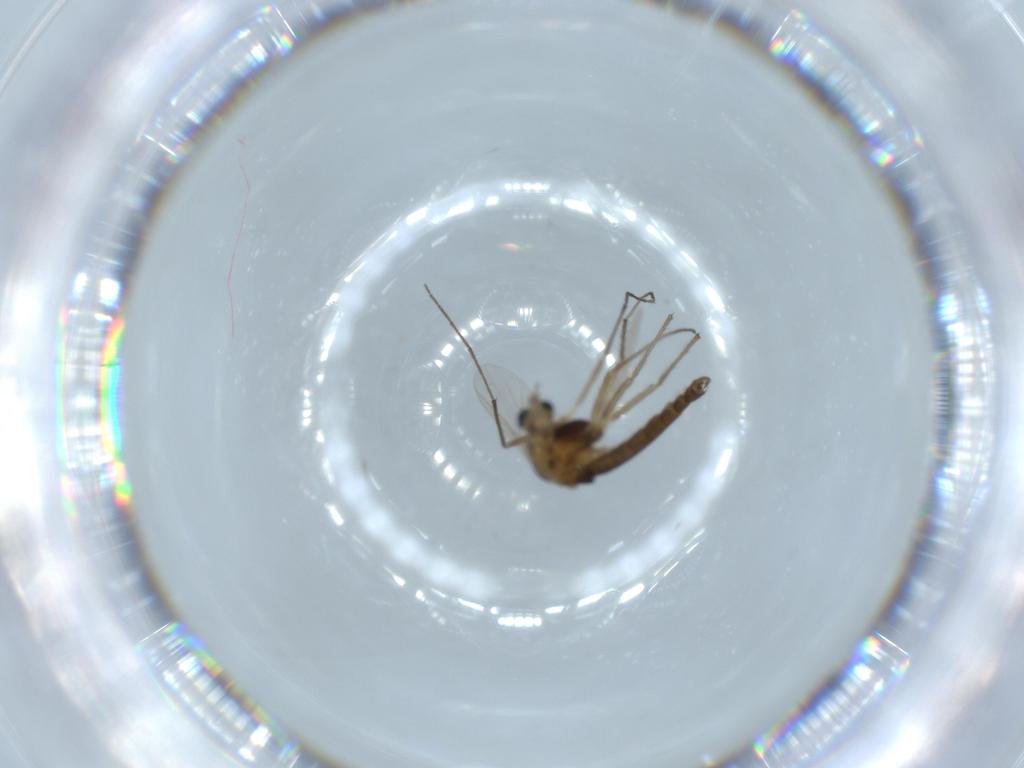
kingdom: Animalia
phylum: Arthropoda
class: Insecta
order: Diptera
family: Chironomidae
